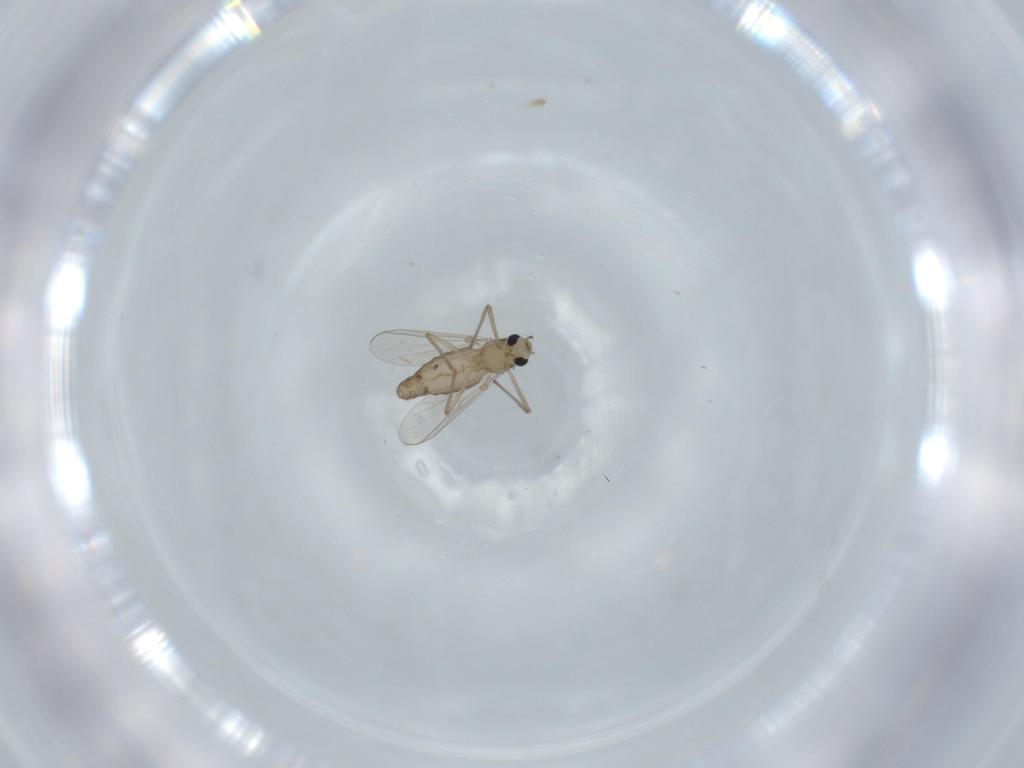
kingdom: Animalia
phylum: Arthropoda
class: Insecta
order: Diptera
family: Chironomidae
